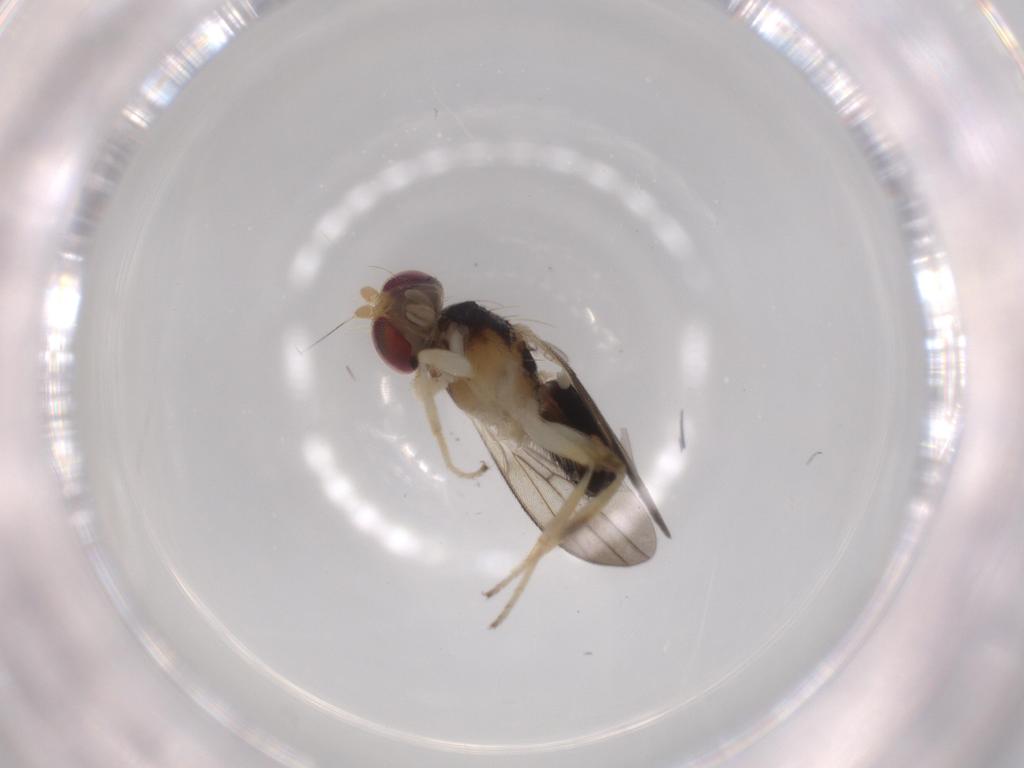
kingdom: Animalia
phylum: Arthropoda
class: Insecta
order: Diptera
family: Clusiidae
